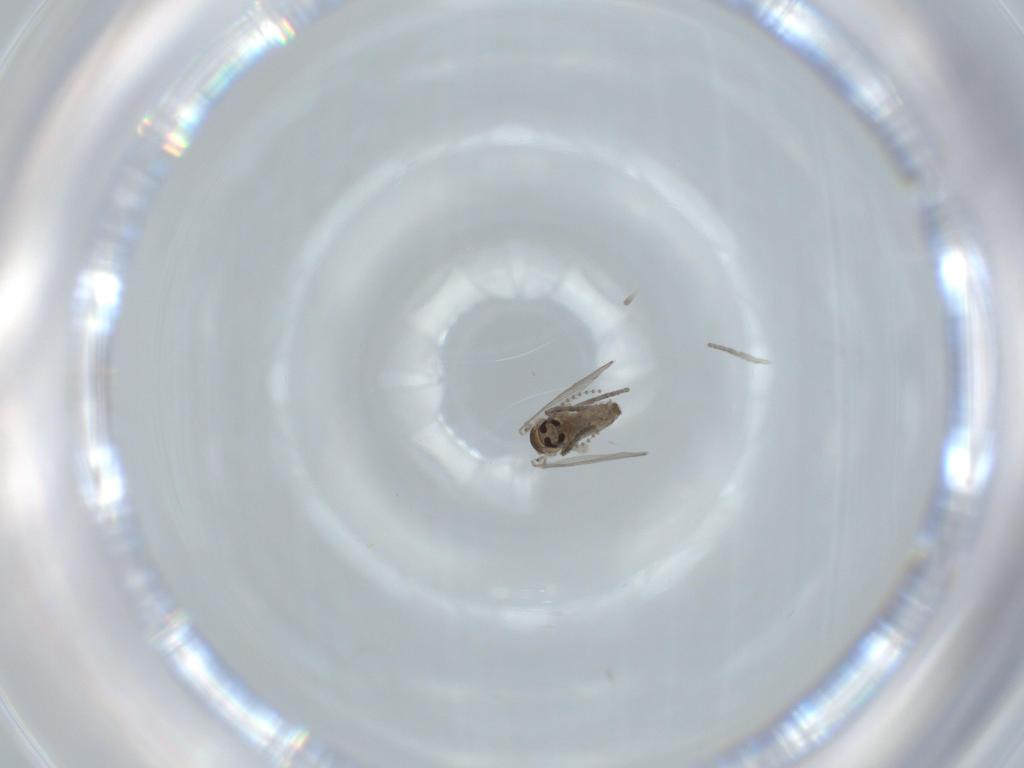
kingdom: Animalia
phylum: Arthropoda
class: Insecta
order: Diptera
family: Psychodidae
